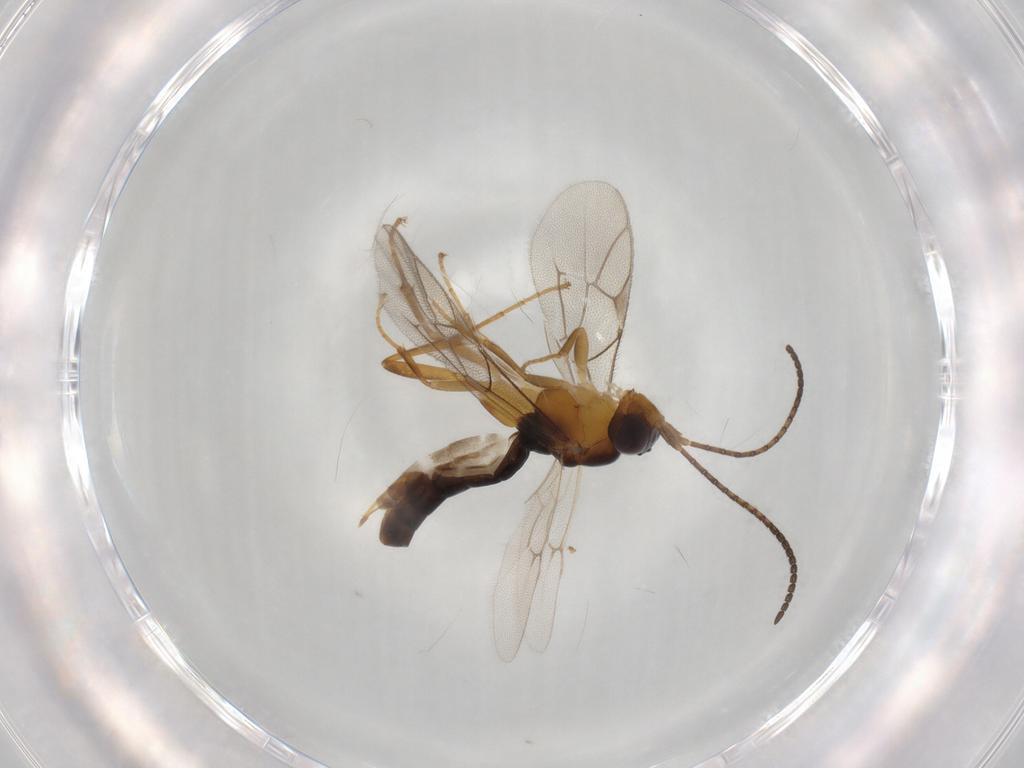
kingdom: Animalia
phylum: Arthropoda
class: Insecta
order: Hymenoptera
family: Ichneumonidae
